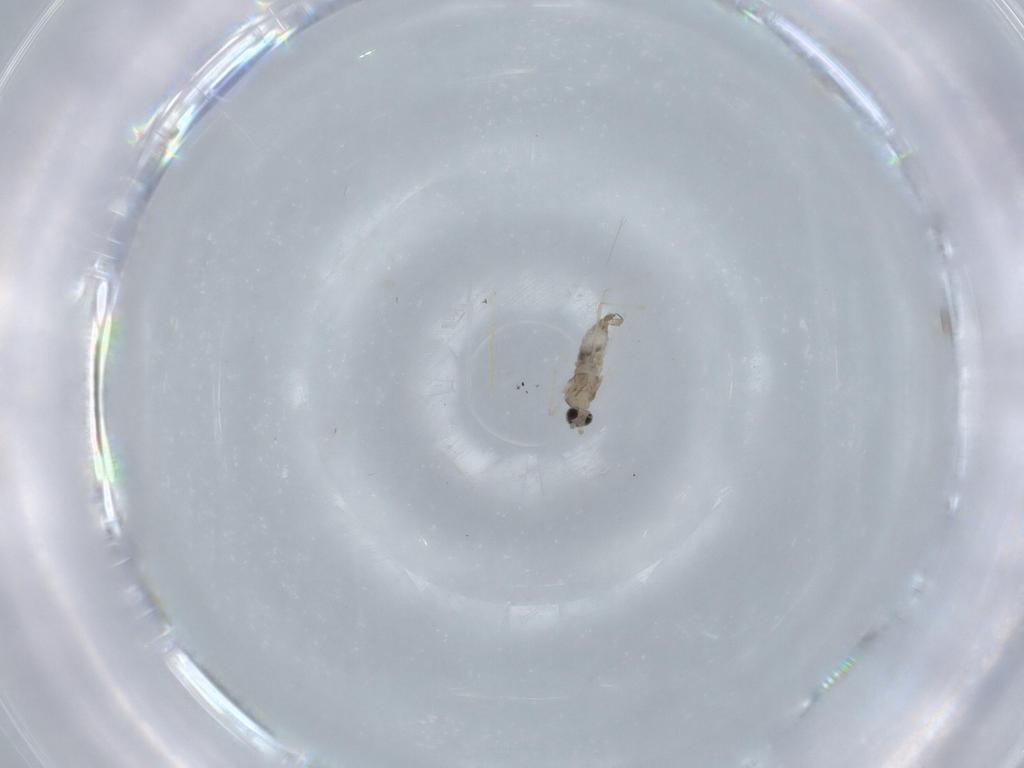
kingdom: Animalia
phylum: Arthropoda
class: Insecta
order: Diptera
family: Cecidomyiidae
